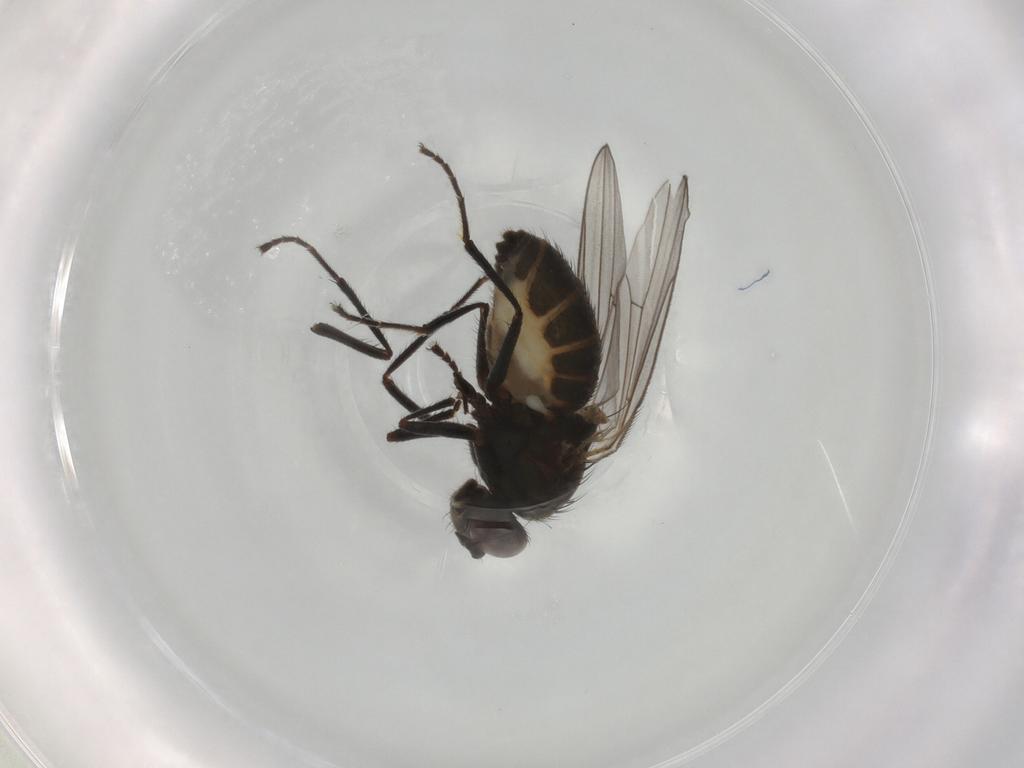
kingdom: Animalia
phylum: Arthropoda
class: Insecta
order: Diptera
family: Ephydridae
